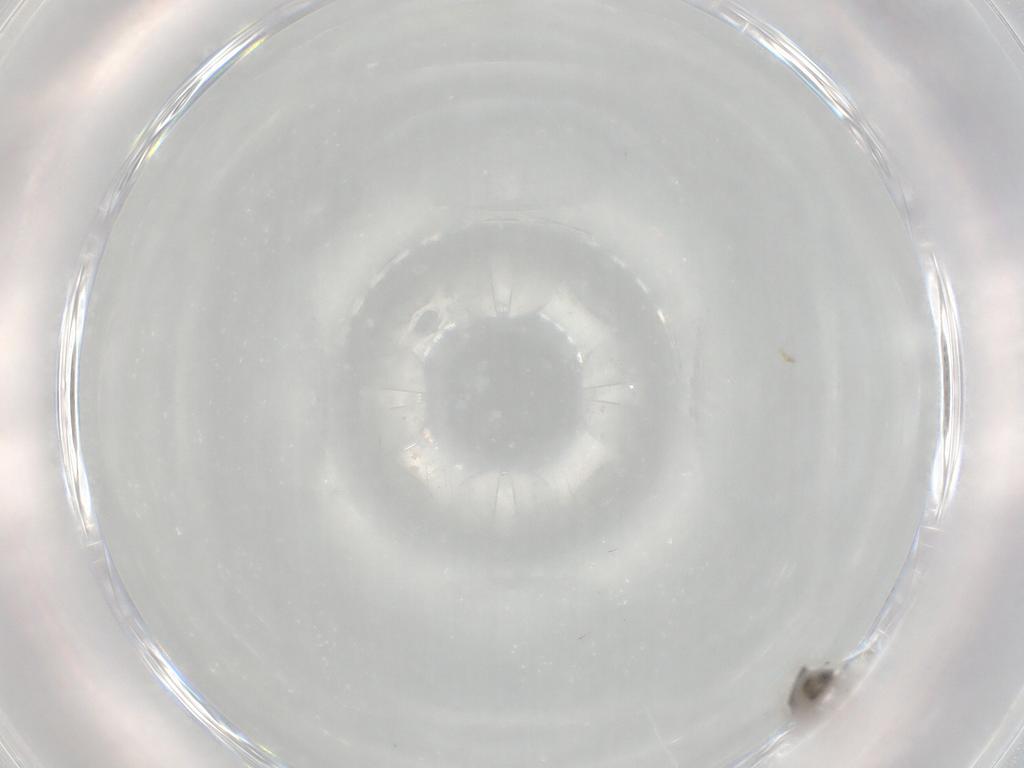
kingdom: Animalia
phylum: Arthropoda
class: Insecta
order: Diptera
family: Cecidomyiidae
